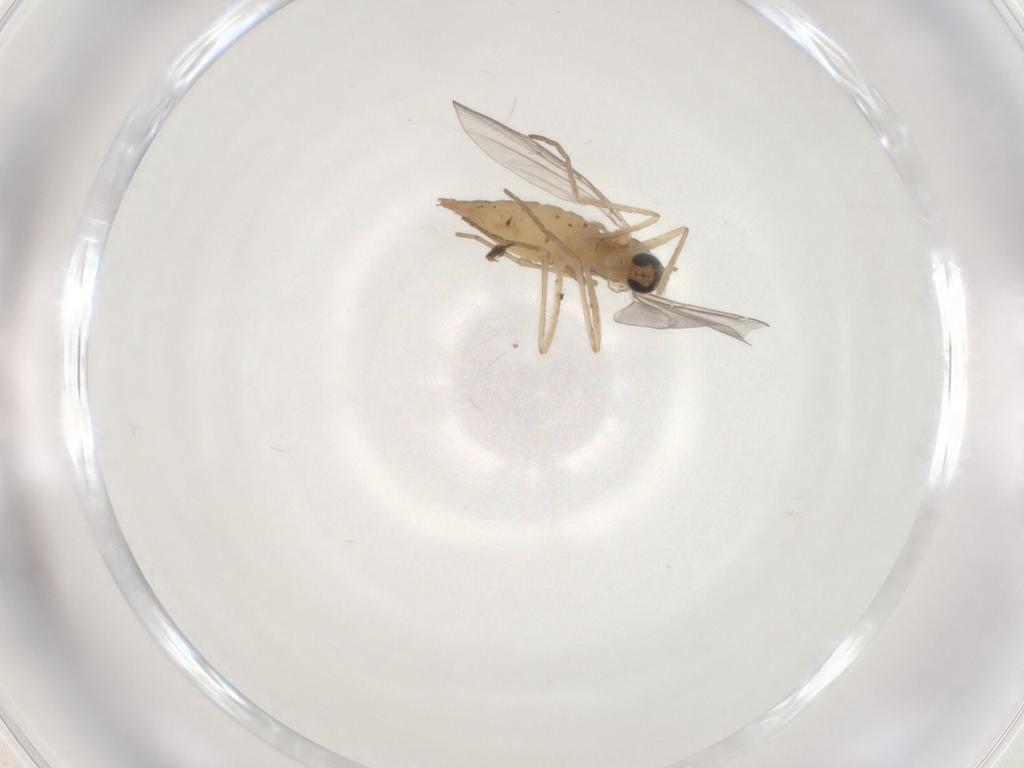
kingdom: Animalia
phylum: Arthropoda
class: Insecta
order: Diptera
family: Cecidomyiidae
